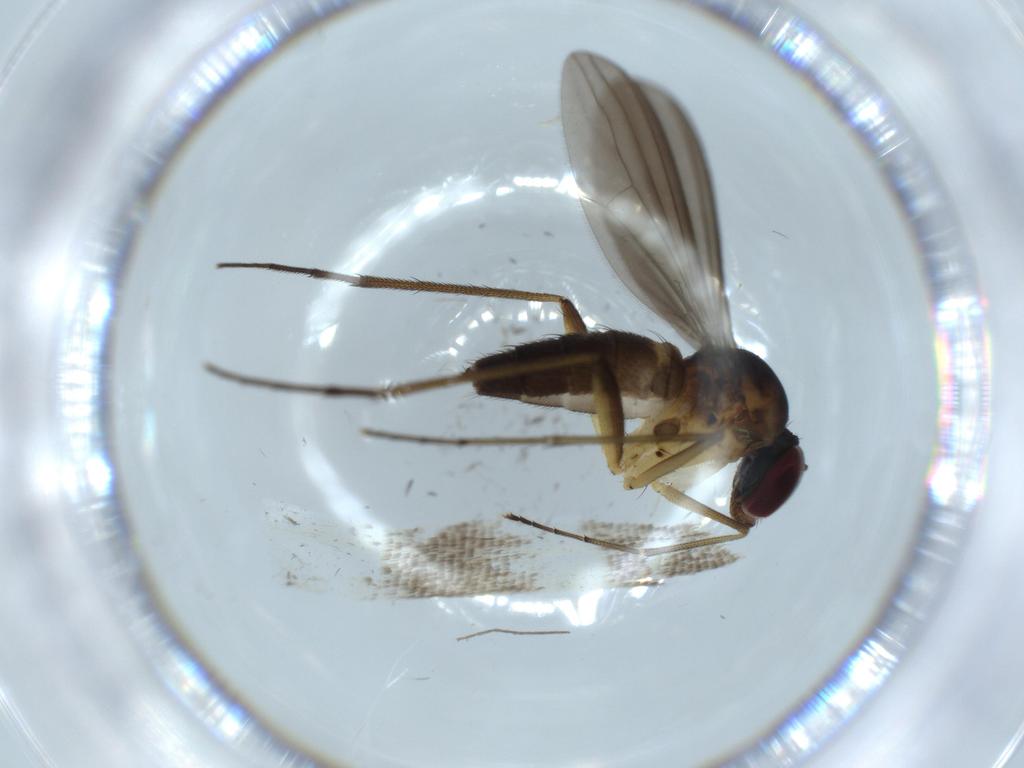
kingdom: Animalia
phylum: Arthropoda
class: Insecta
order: Diptera
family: Dolichopodidae
